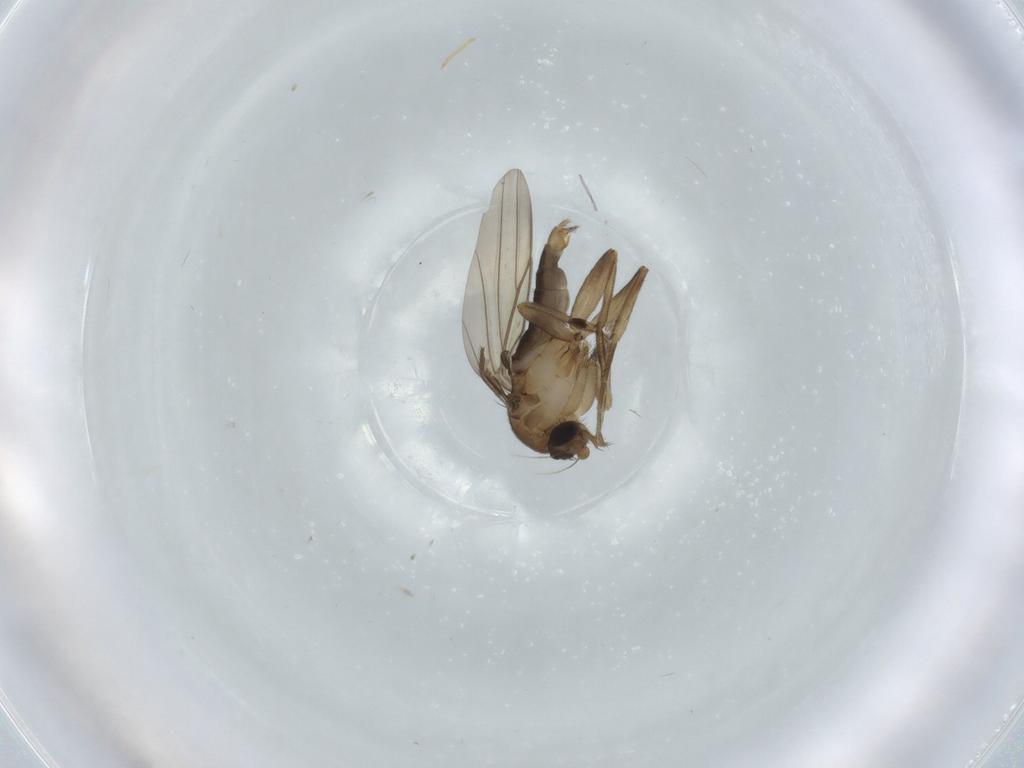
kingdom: Animalia
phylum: Arthropoda
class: Insecta
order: Diptera
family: Phoridae
